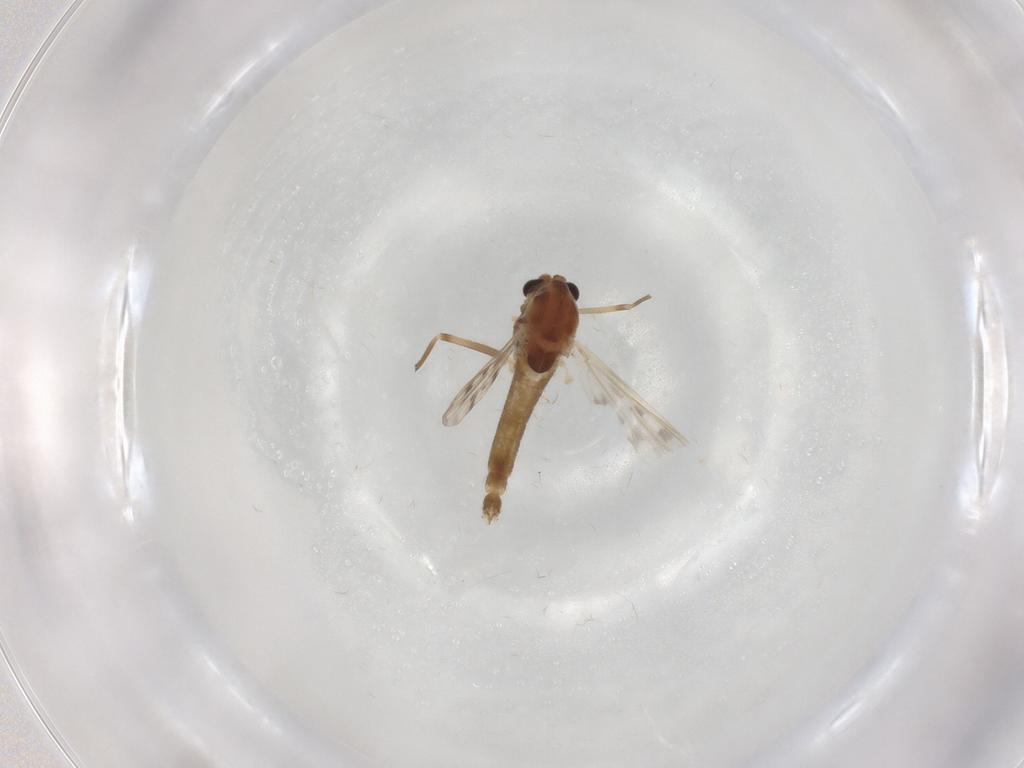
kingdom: Animalia
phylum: Arthropoda
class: Insecta
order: Diptera
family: Chironomidae
